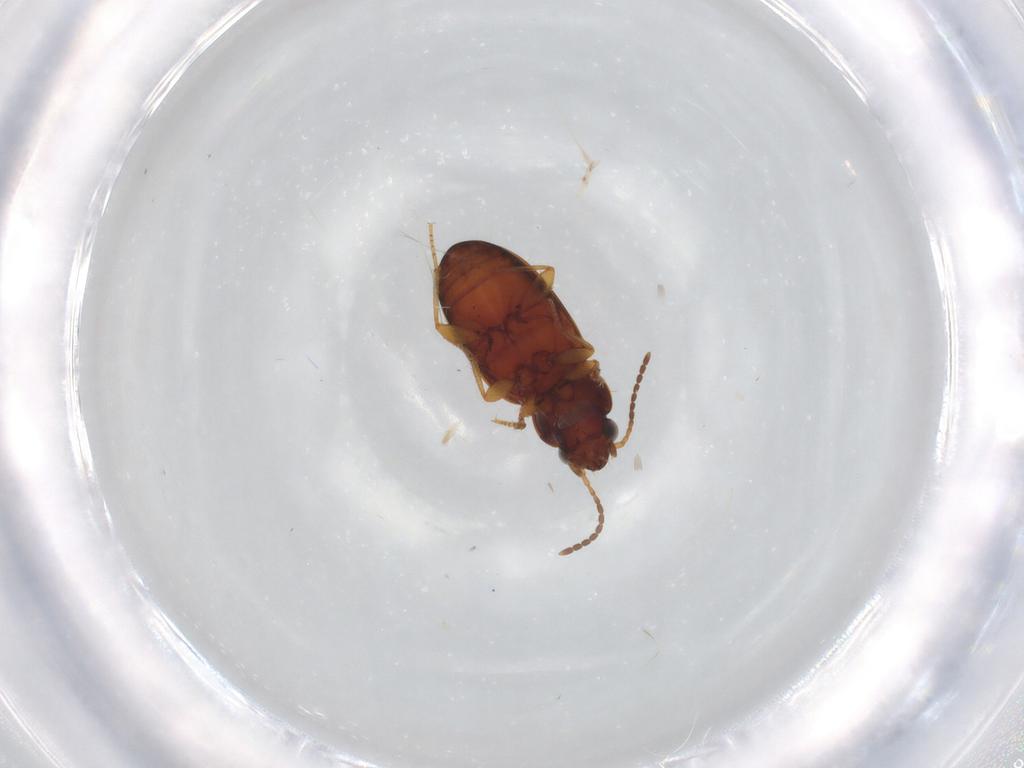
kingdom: Animalia
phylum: Arthropoda
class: Insecta
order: Coleoptera
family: Carabidae
